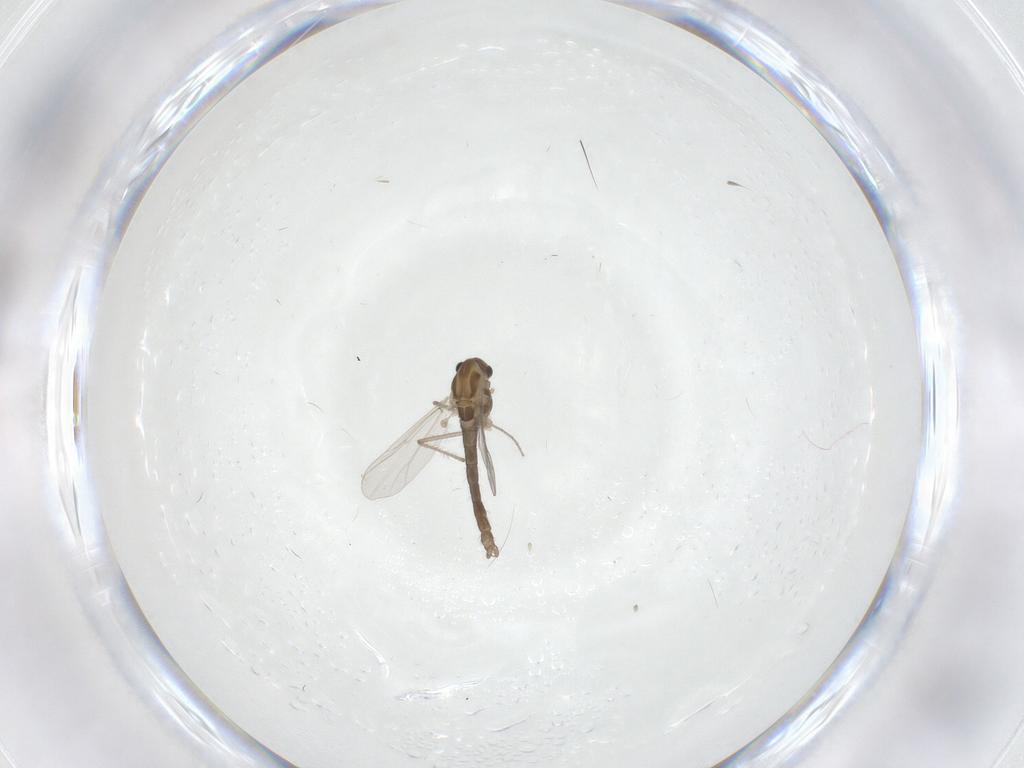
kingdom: Animalia
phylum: Arthropoda
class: Insecta
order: Diptera
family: Chironomidae
